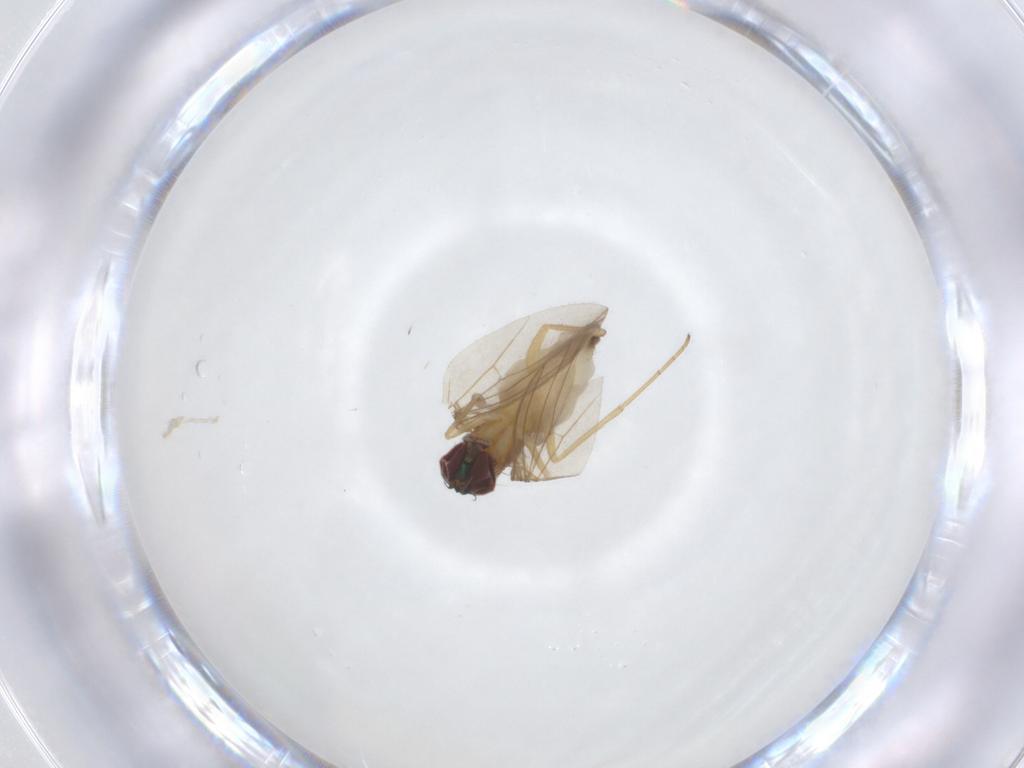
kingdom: Animalia
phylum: Arthropoda
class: Insecta
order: Diptera
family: Dolichopodidae
